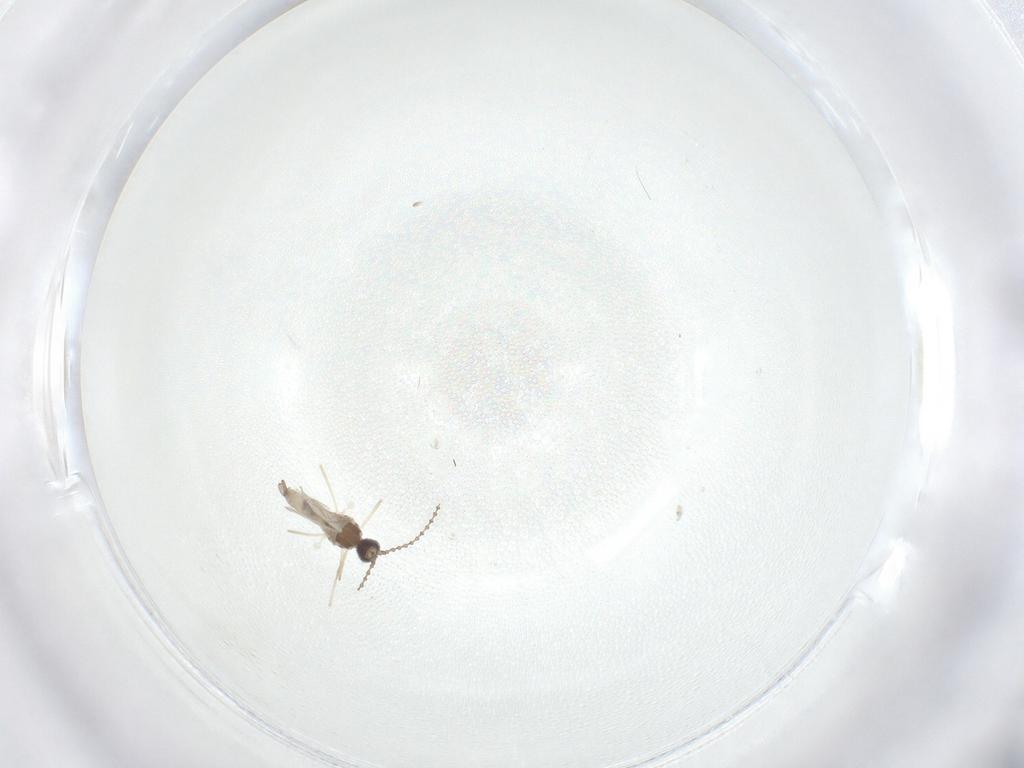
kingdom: Animalia
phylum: Arthropoda
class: Insecta
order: Diptera
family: Cecidomyiidae
